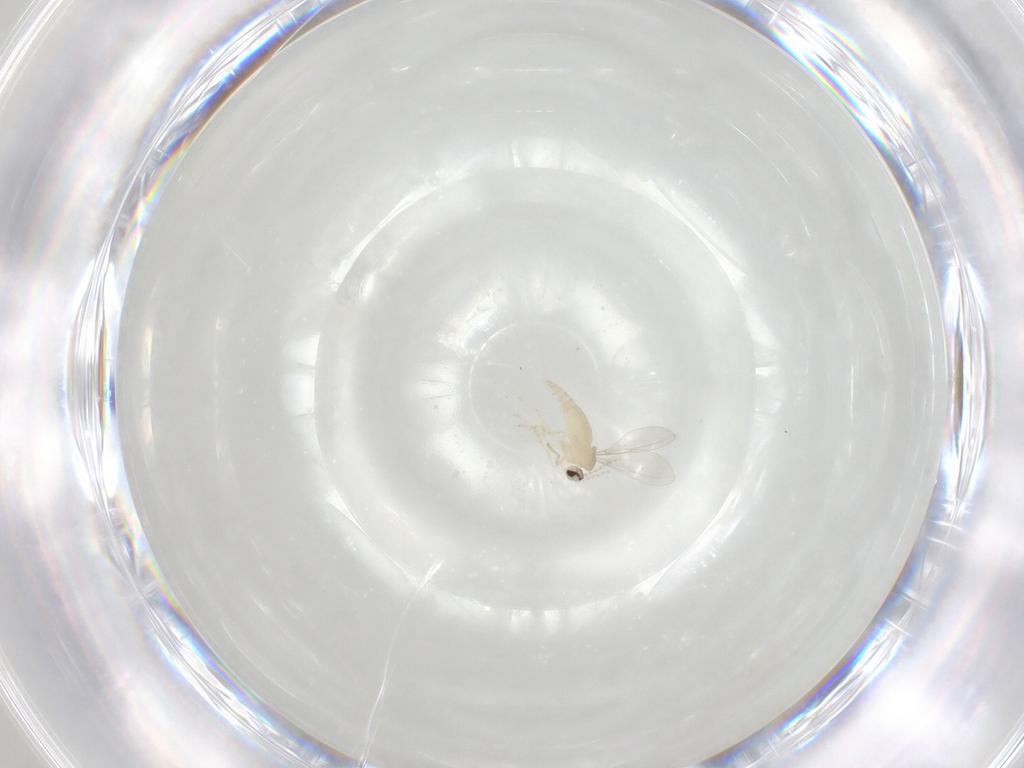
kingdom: Animalia
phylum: Arthropoda
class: Insecta
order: Diptera
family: Cecidomyiidae
